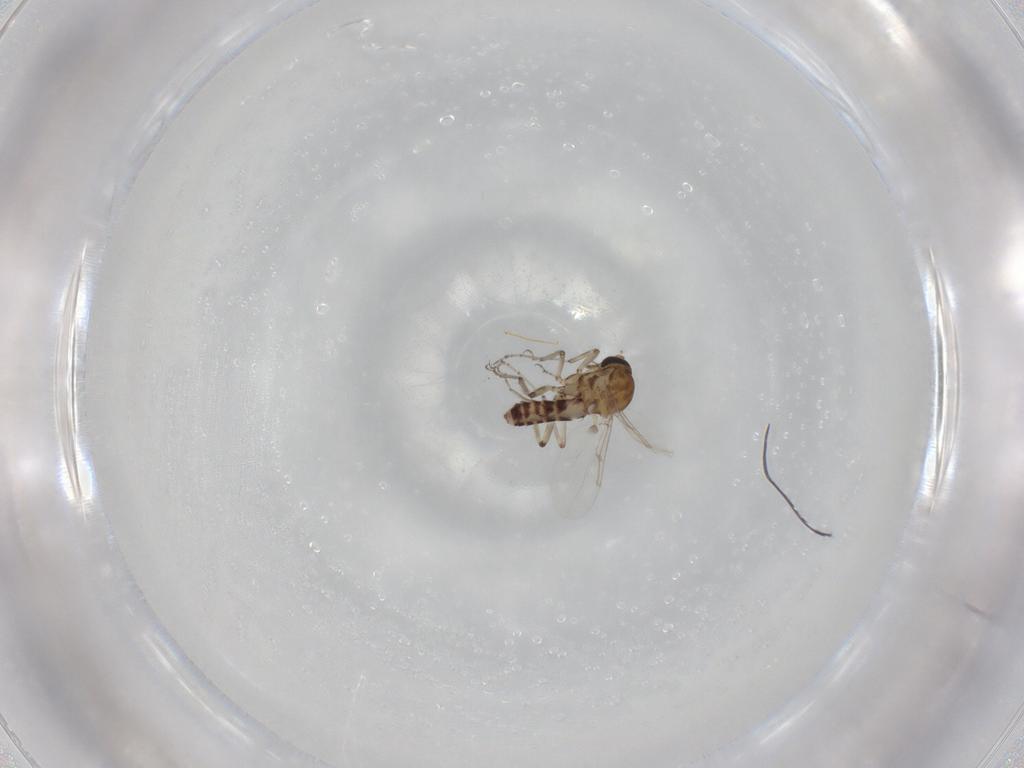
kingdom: Animalia
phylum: Arthropoda
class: Insecta
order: Diptera
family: Ceratopogonidae
